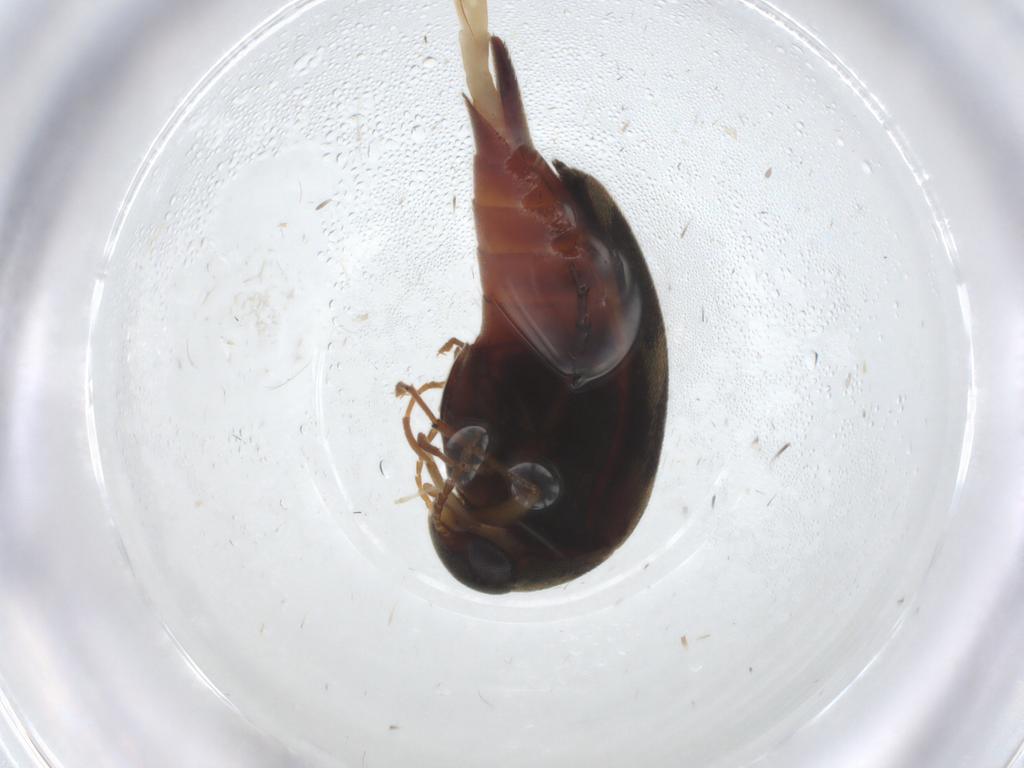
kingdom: Animalia
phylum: Arthropoda
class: Insecta
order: Coleoptera
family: Mordellidae
